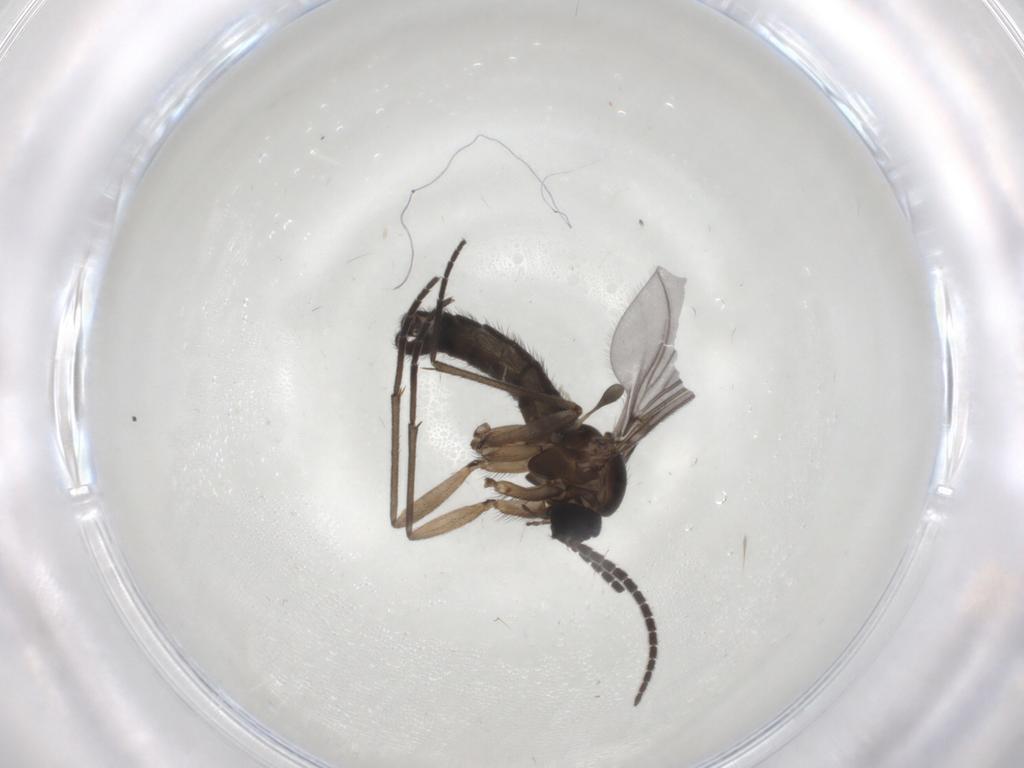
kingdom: Animalia
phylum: Arthropoda
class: Insecta
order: Diptera
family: Sciaridae
